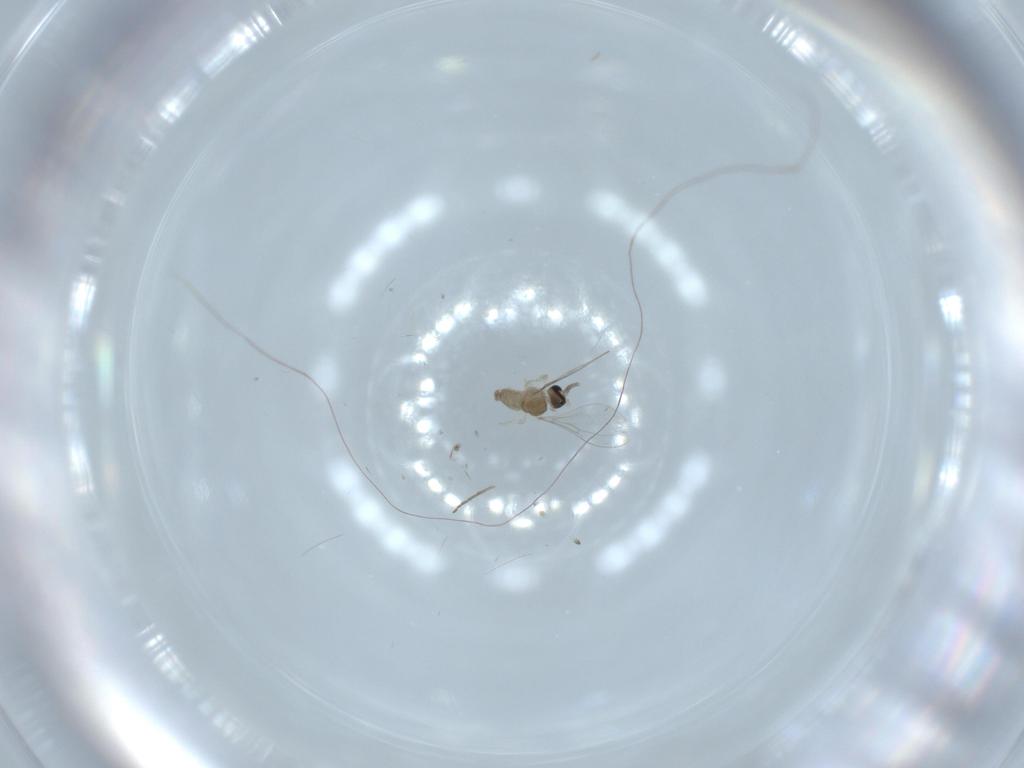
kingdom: Animalia
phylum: Arthropoda
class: Insecta
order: Diptera
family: Cecidomyiidae
